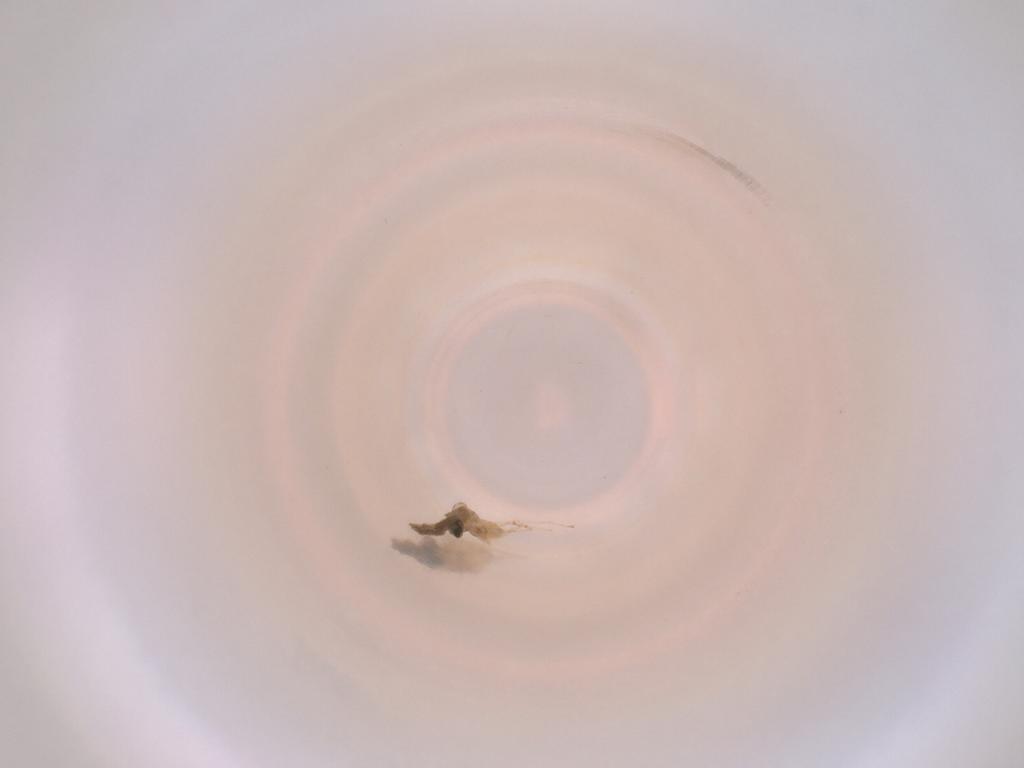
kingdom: Animalia
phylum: Arthropoda
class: Insecta
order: Diptera
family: Cecidomyiidae
